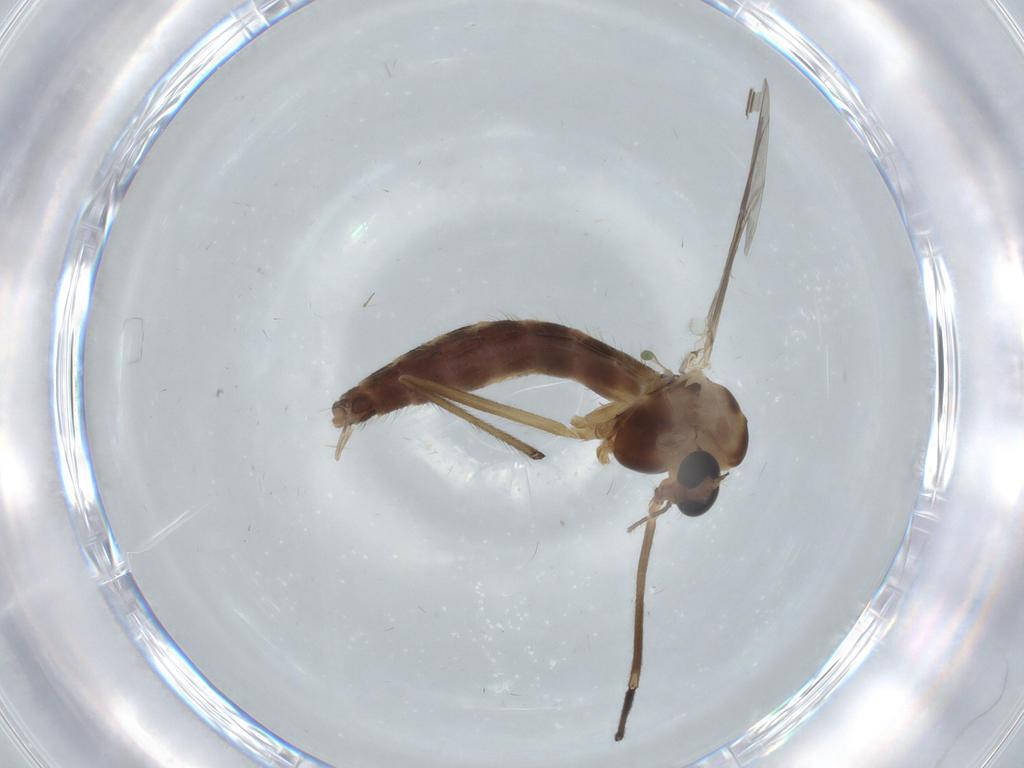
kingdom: Animalia
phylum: Arthropoda
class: Insecta
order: Diptera
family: Chironomidae
